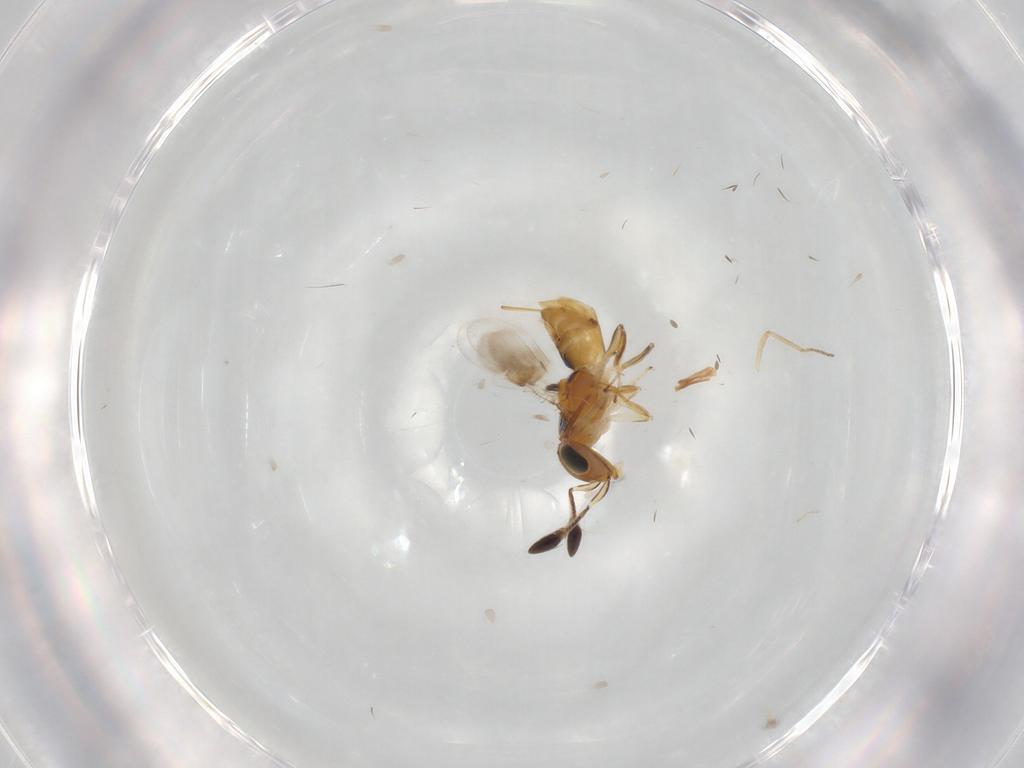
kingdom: Animalia
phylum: Arthropoda
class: Insecta
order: Hymenoptera
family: Encyrtidae
